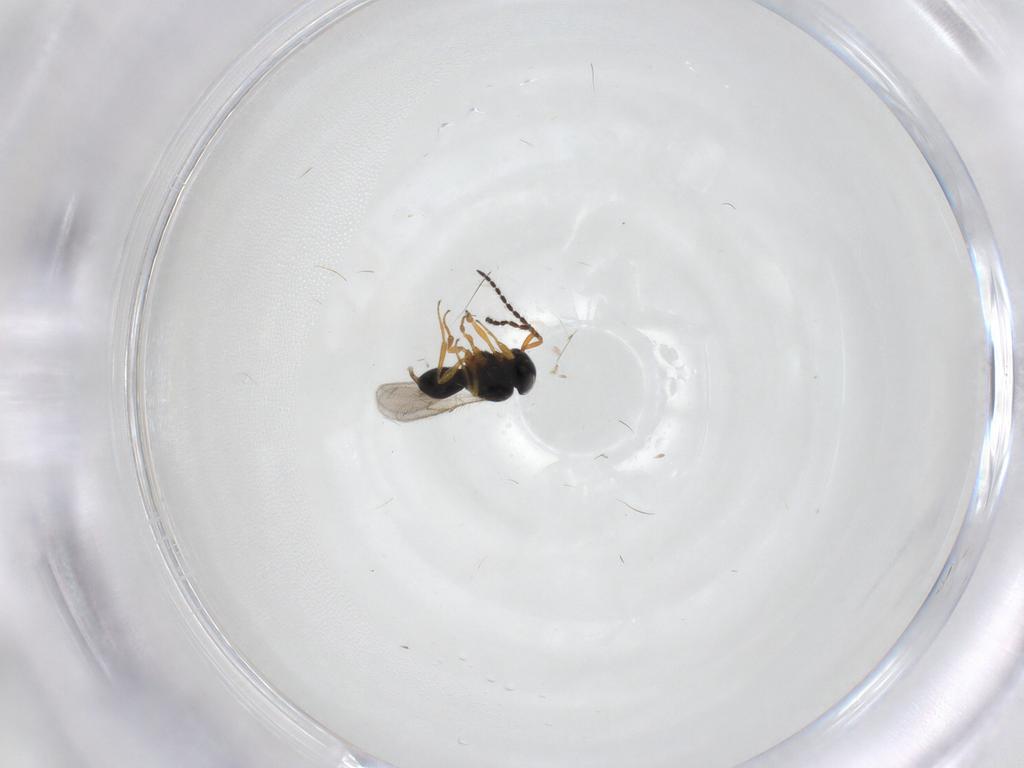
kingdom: Animalia
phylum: Arthropoda
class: Insecta
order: Hymenoptera
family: Scelionidae
